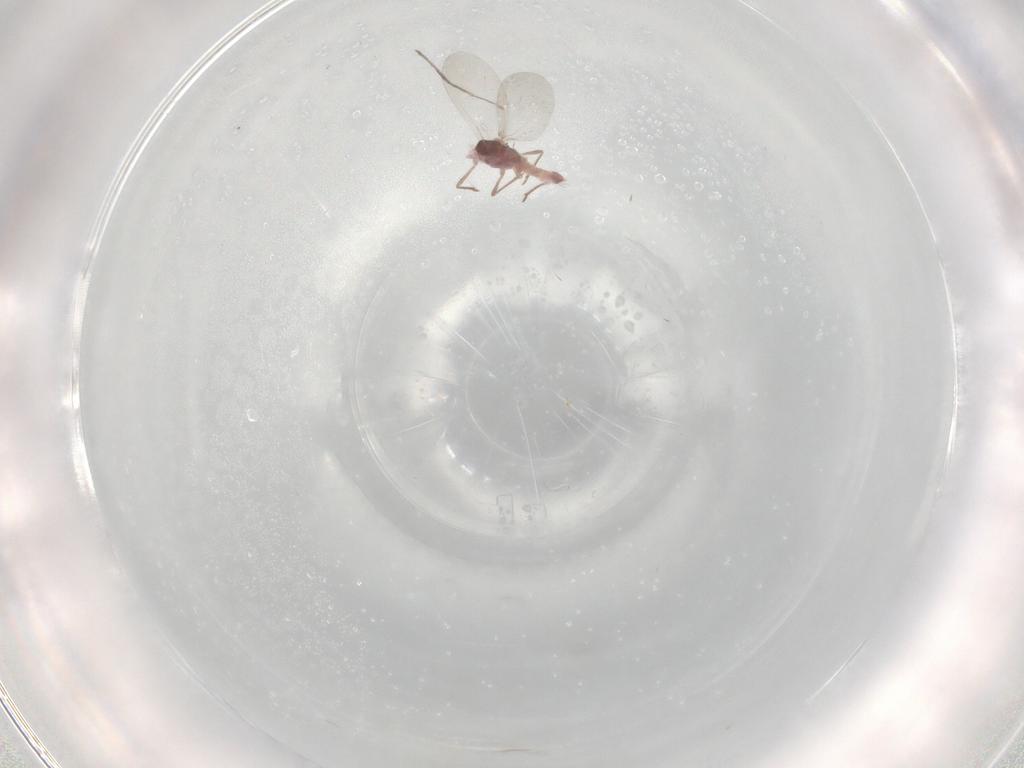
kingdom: Animalia
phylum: Arthropoda
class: Insecta
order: Diptera
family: Cecidomyiidae
